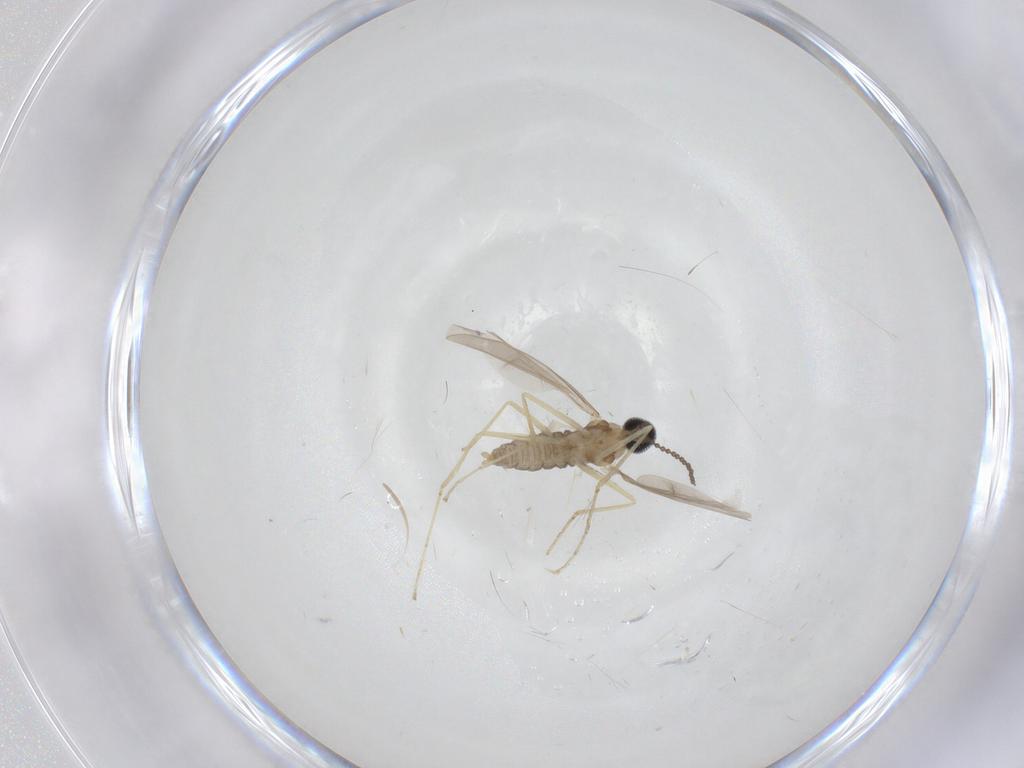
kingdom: Animalia
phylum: Arthropoda
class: Insecta
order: Diptera
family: Cecidomyiidae
